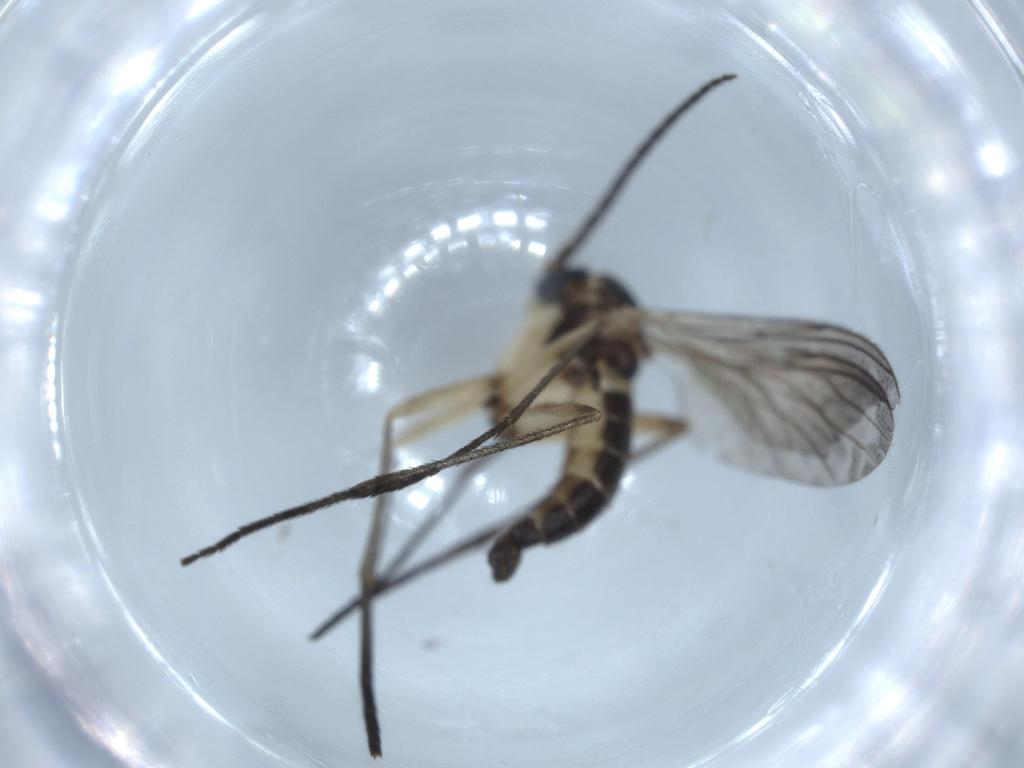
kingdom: Animalia
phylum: Arthropoda
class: Insecta
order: Diptera
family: Sciaridae
